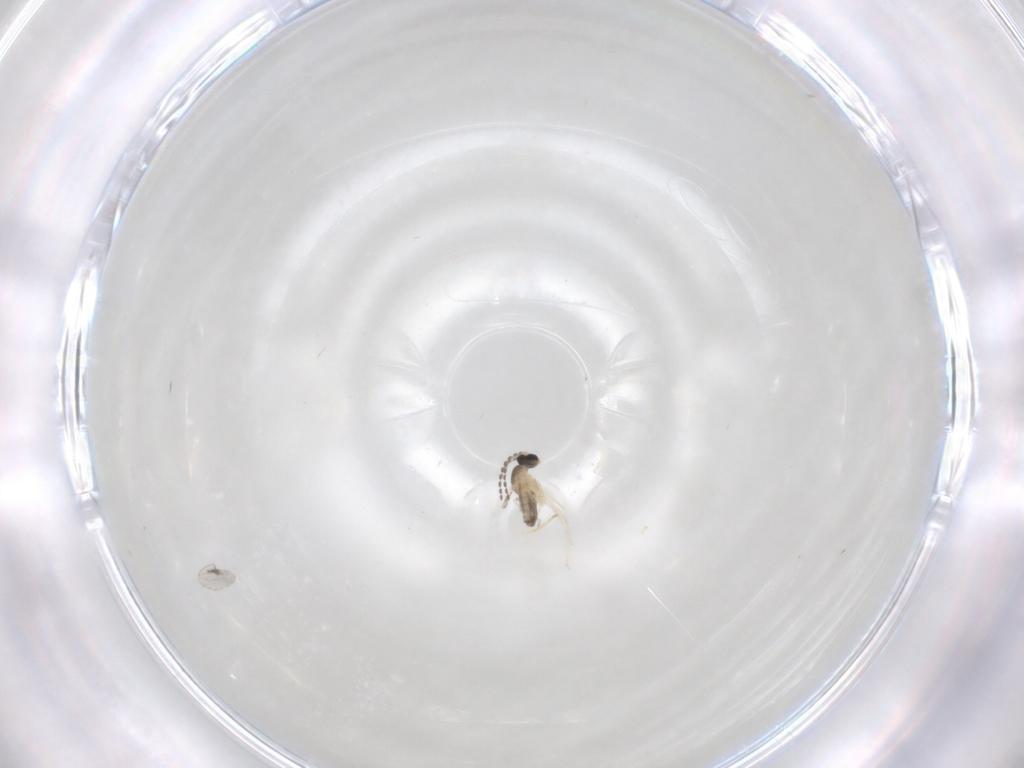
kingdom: Animalia
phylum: Arthropoda
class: Insecta
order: Diptera
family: Cecidomyiidae
